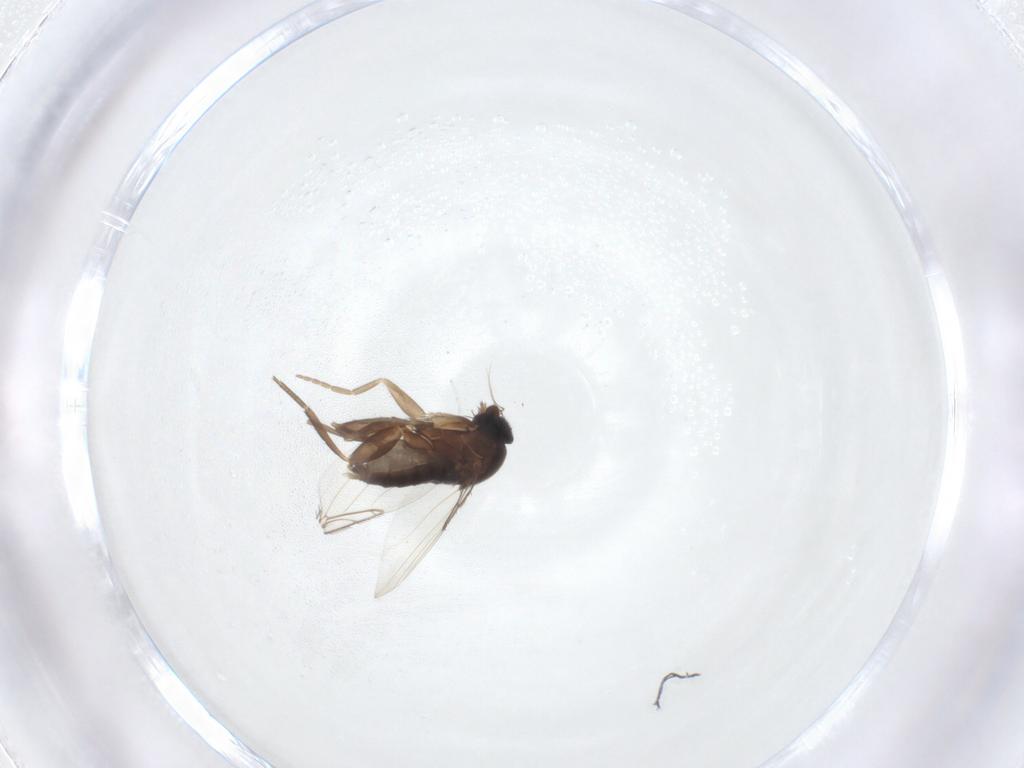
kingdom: Animalia
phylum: Arthropoda
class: Insecta
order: Diptera
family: Phoridae
